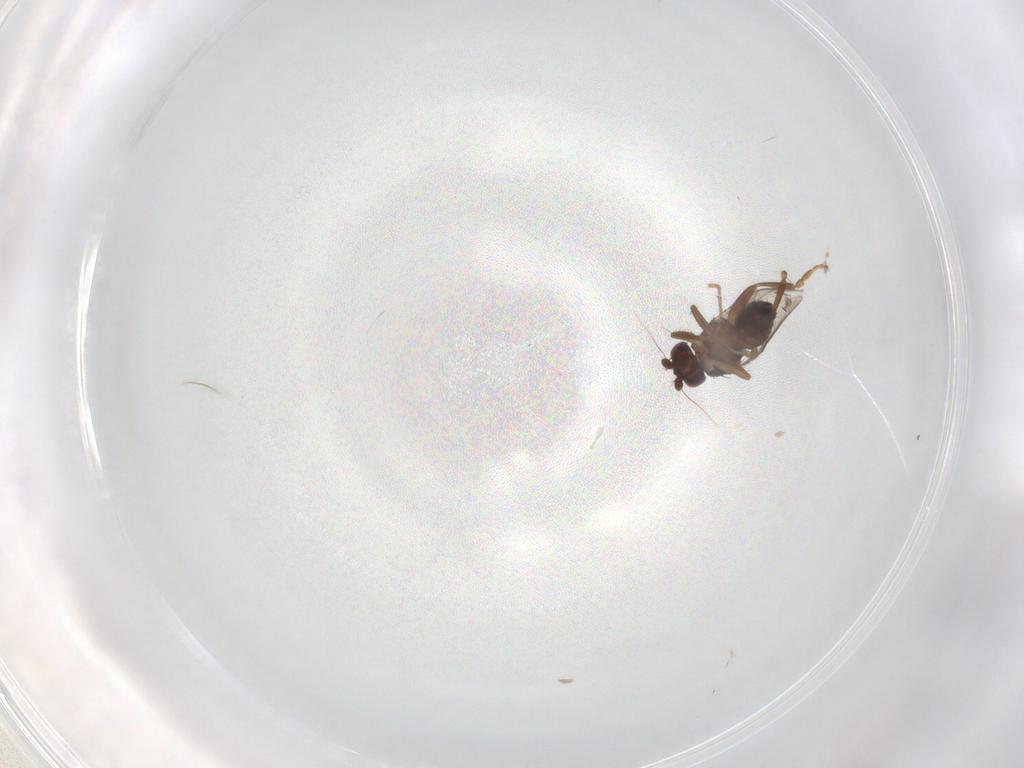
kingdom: Animalia
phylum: Arthropoda
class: Insecta
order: Diptera
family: Sphaeroceridae
